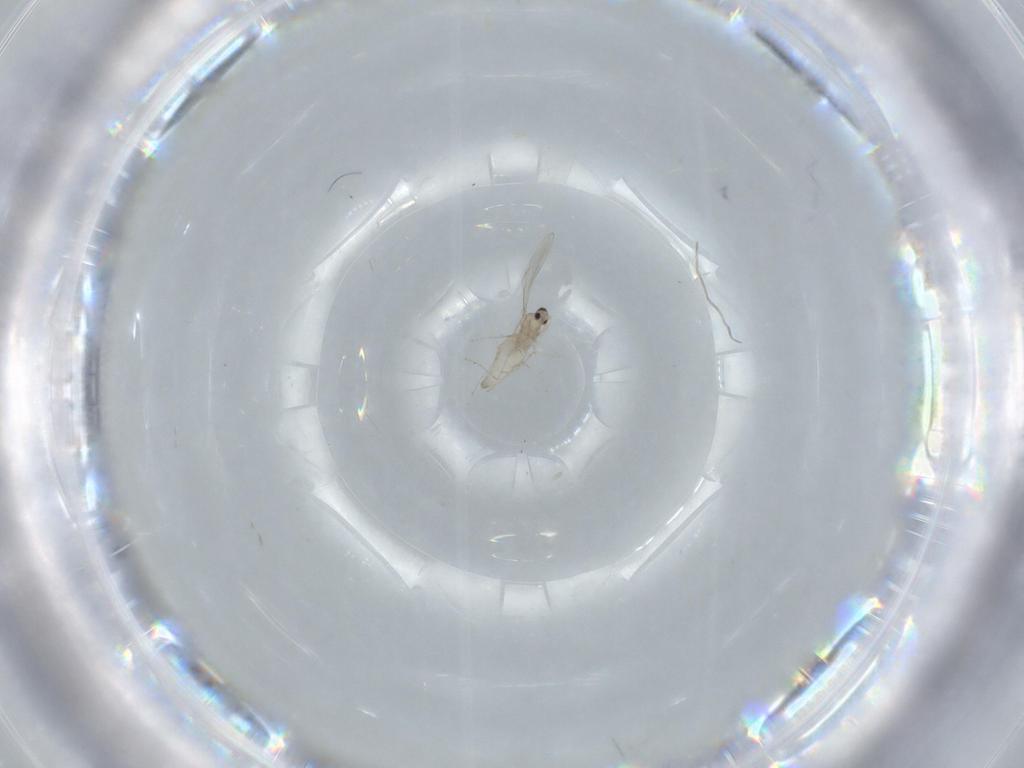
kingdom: Animalia
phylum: Arthropoda
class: Insecta
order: Diptera
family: Cecidomyiidae
